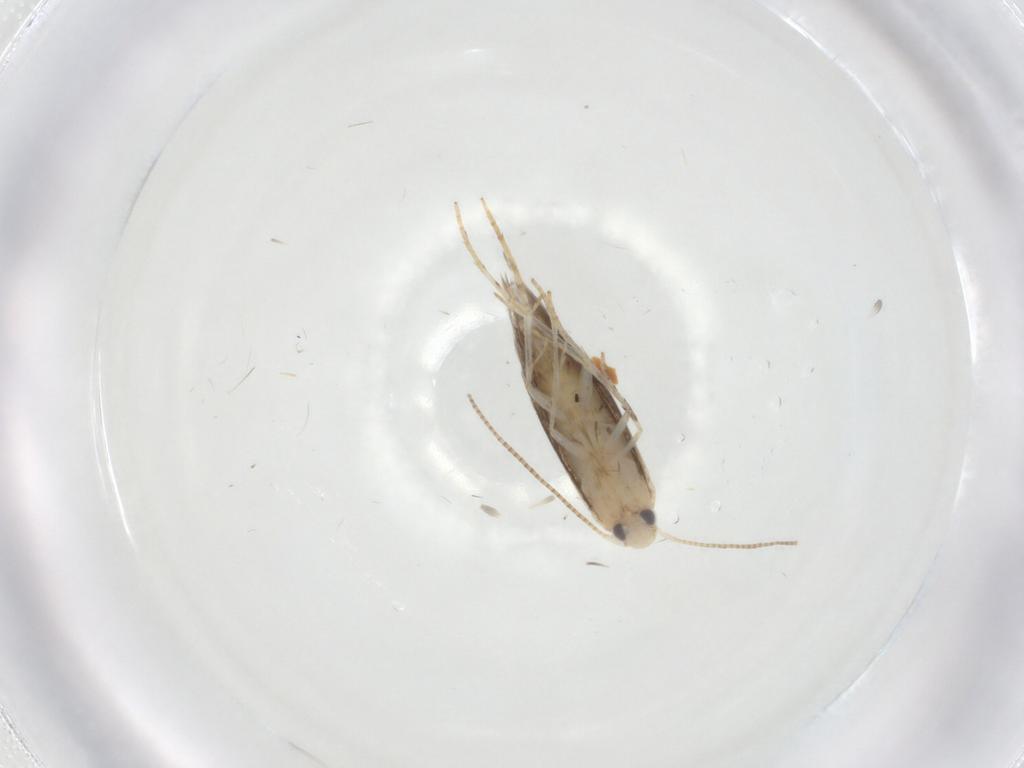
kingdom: Animalia
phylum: Arthropoda
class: Insecta
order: Lepidoptera
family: Gracillariidae
